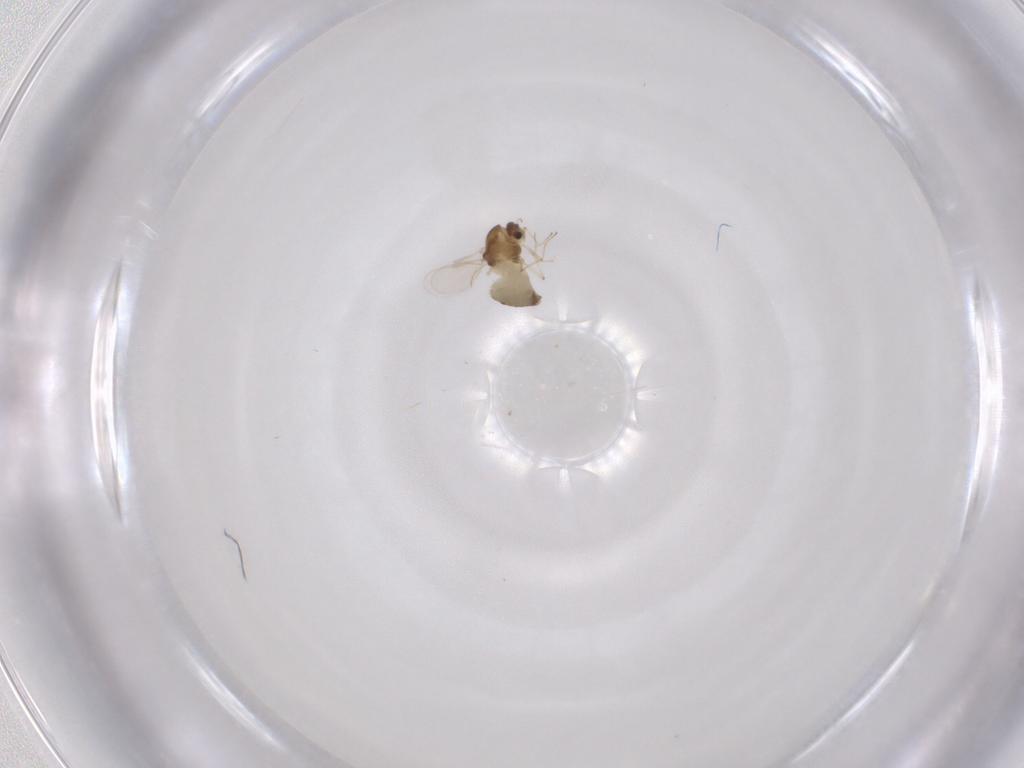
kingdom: Animalia
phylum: Arthropoda
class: Insecta
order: Diptera
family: Chironomidae
